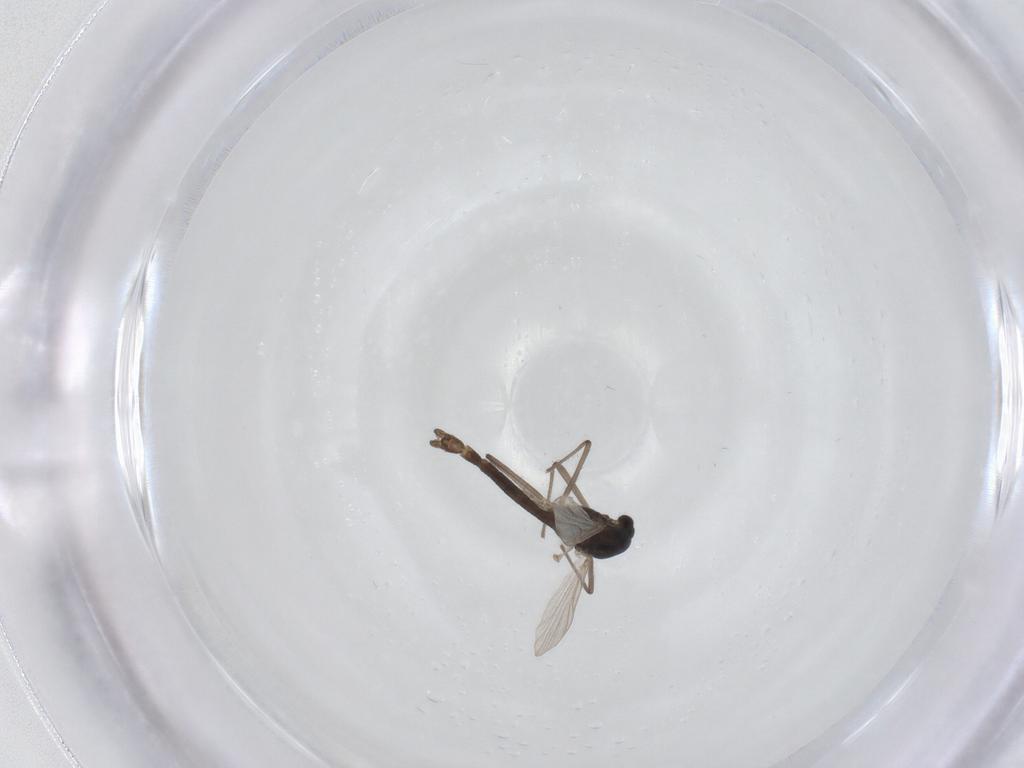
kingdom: Animalia
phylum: Arthropoda
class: Insecta
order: Diptera
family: Chironomidae
